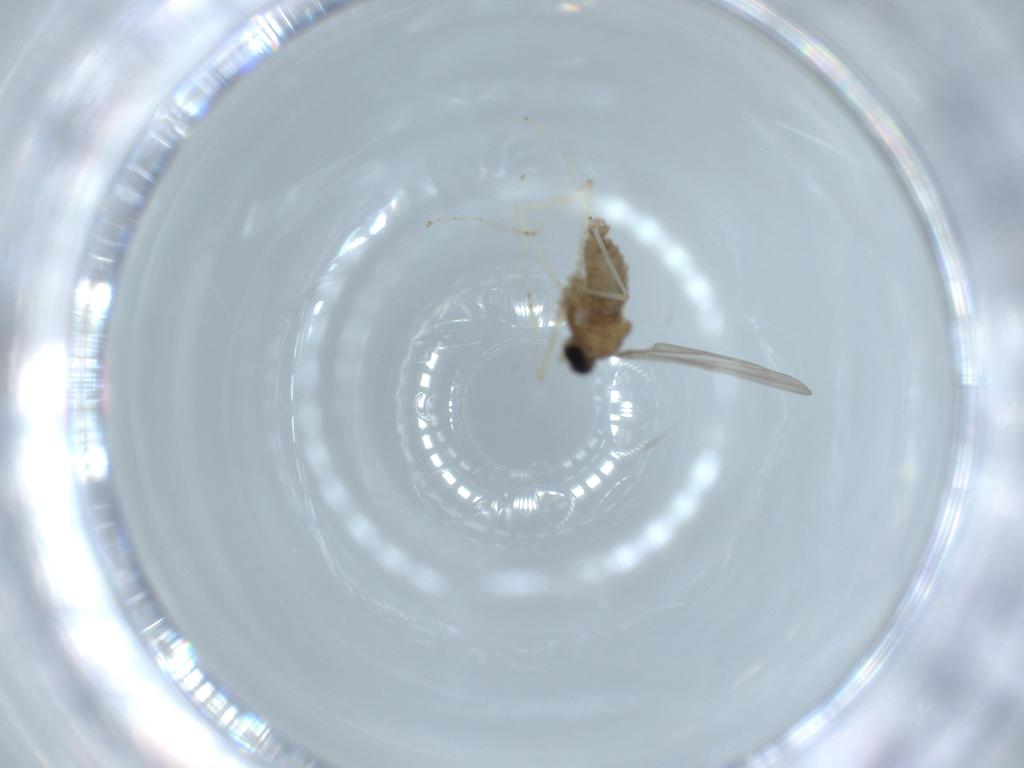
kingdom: Animalia
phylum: Arthropoda
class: Insecta
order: Diptera
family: Cecidomyiidae
